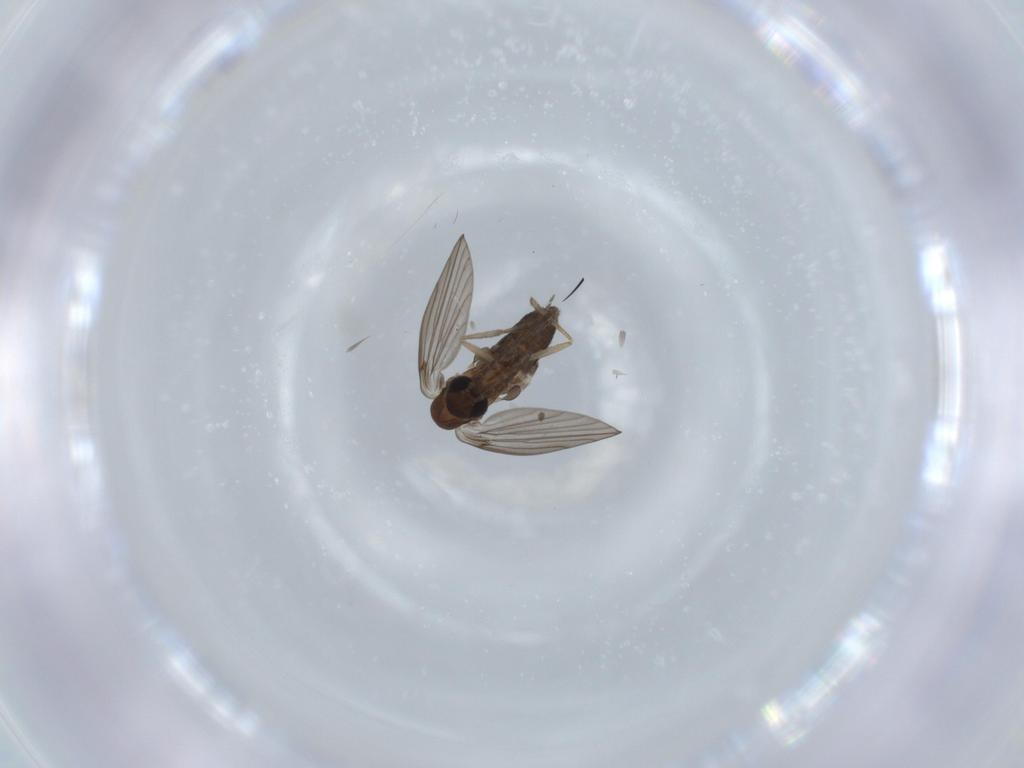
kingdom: Animalia
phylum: Arthropoda
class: Insecta
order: Diptera
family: Psychodidae
